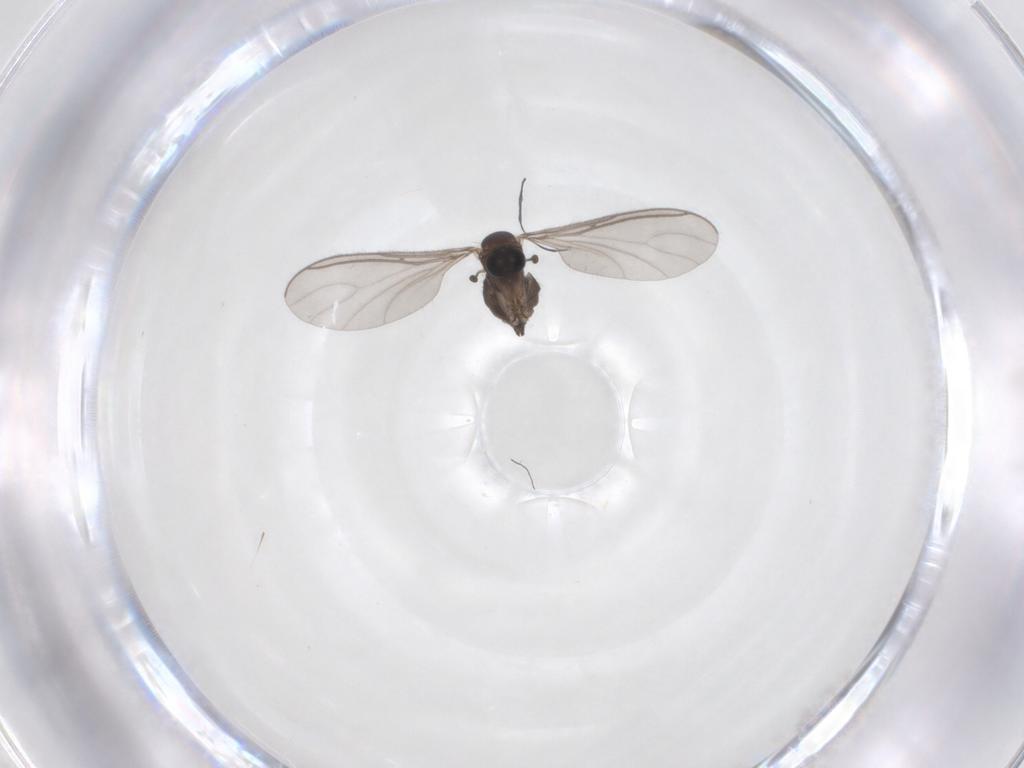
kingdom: Animalia
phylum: Arthropoda
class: Insecta
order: Diptera
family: Sciaridae
